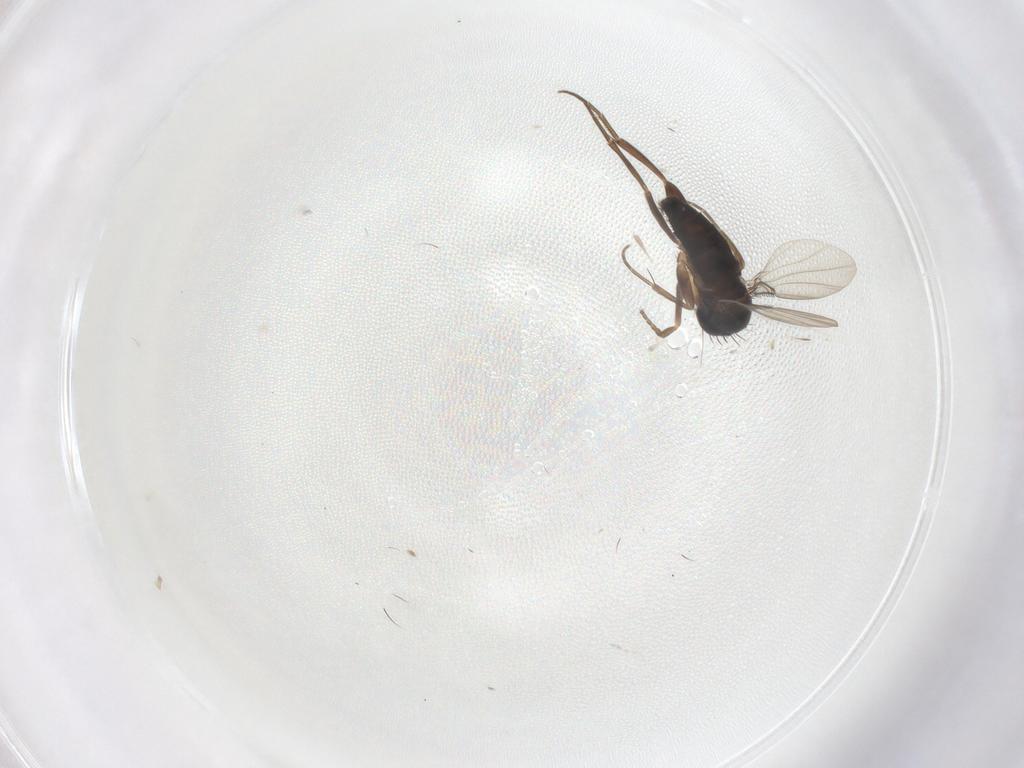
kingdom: Animalia
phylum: Arthropoda
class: Insecta
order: Diptera
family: Phoridae
